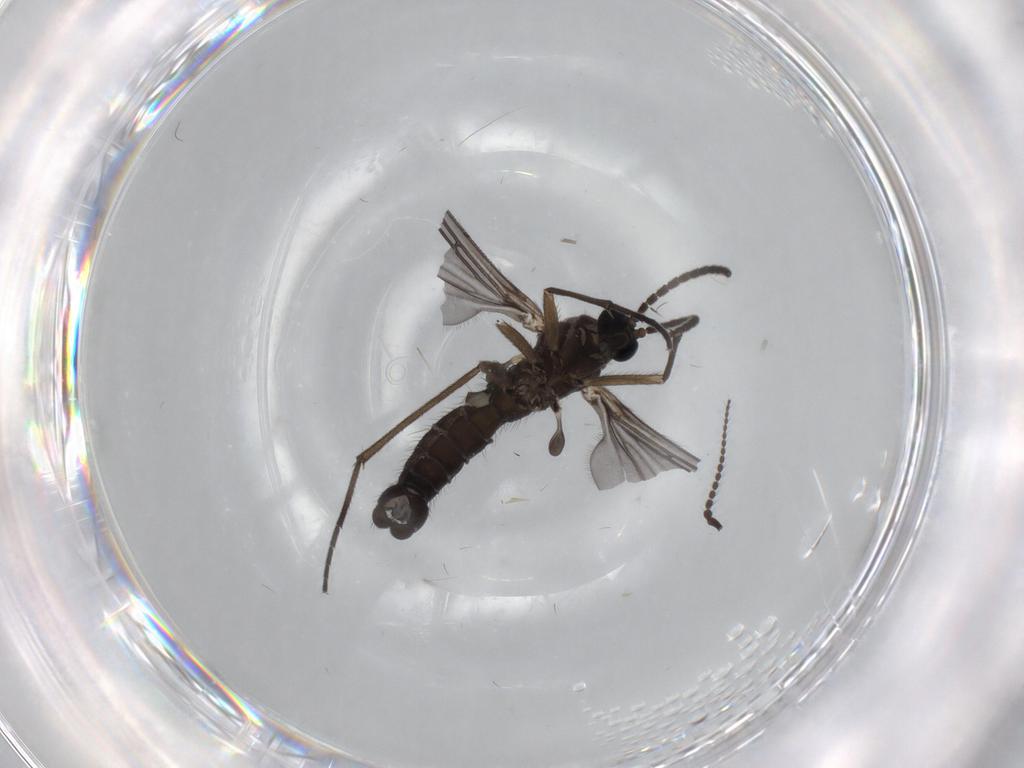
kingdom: Animalia
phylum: Arthropoda
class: Insecta
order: Diptera
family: Sciaridae
